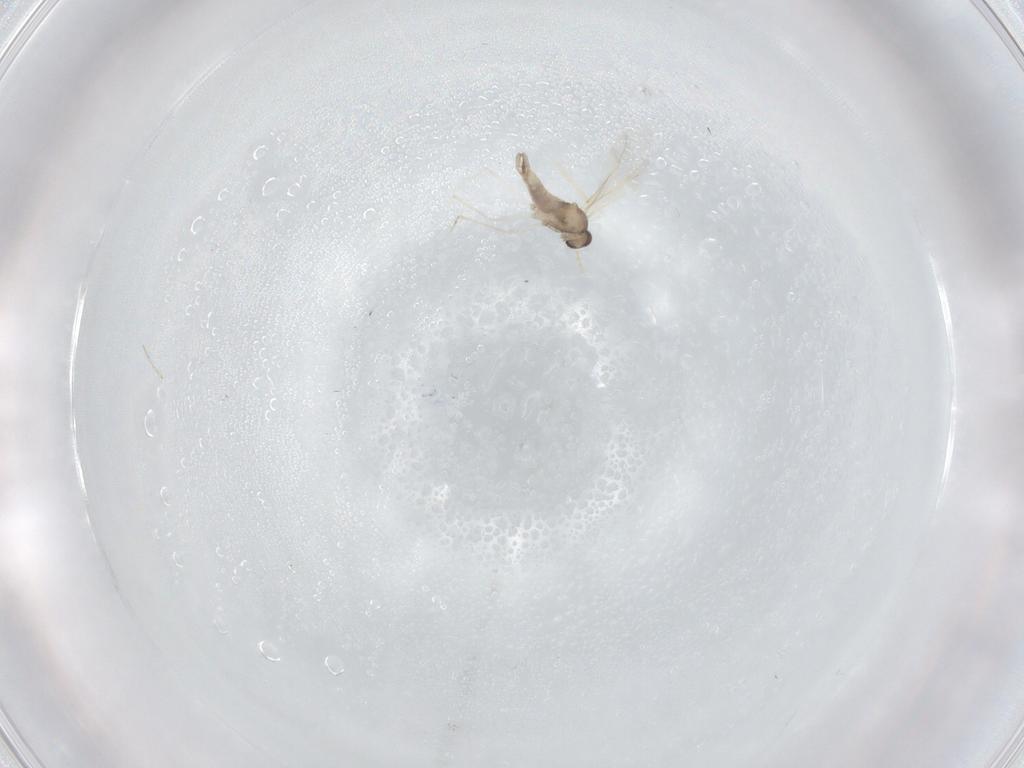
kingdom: Animalia
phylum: Arthropoda
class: Insecta
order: Diptera
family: Cecidomyiidae
